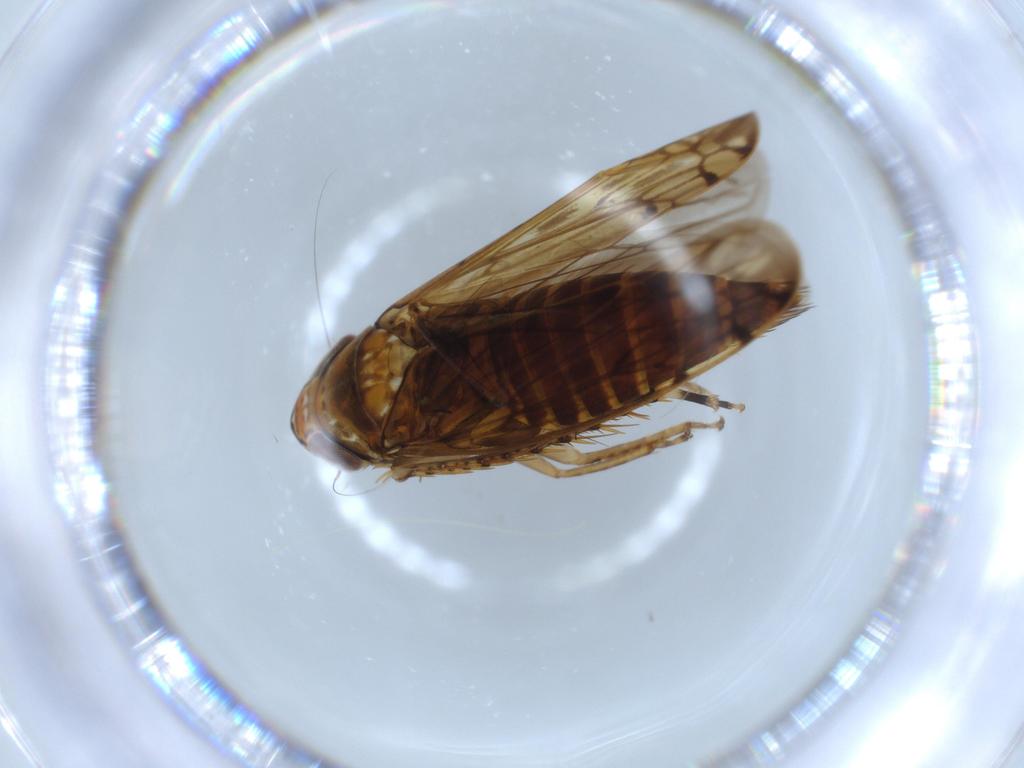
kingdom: Animalia
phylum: Arthropoda
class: Insecta
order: Hemiptera
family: Cicadellidae
